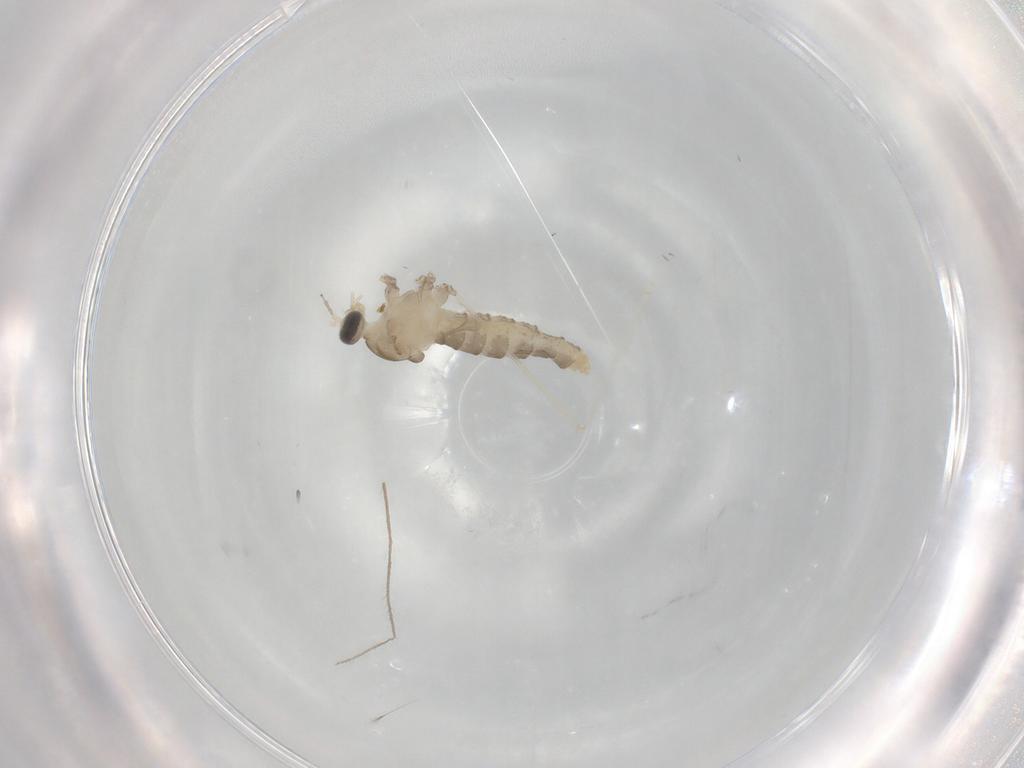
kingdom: Animalia
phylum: Arthropoda
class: Insecta
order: Diptera
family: Cecidomyiidae
